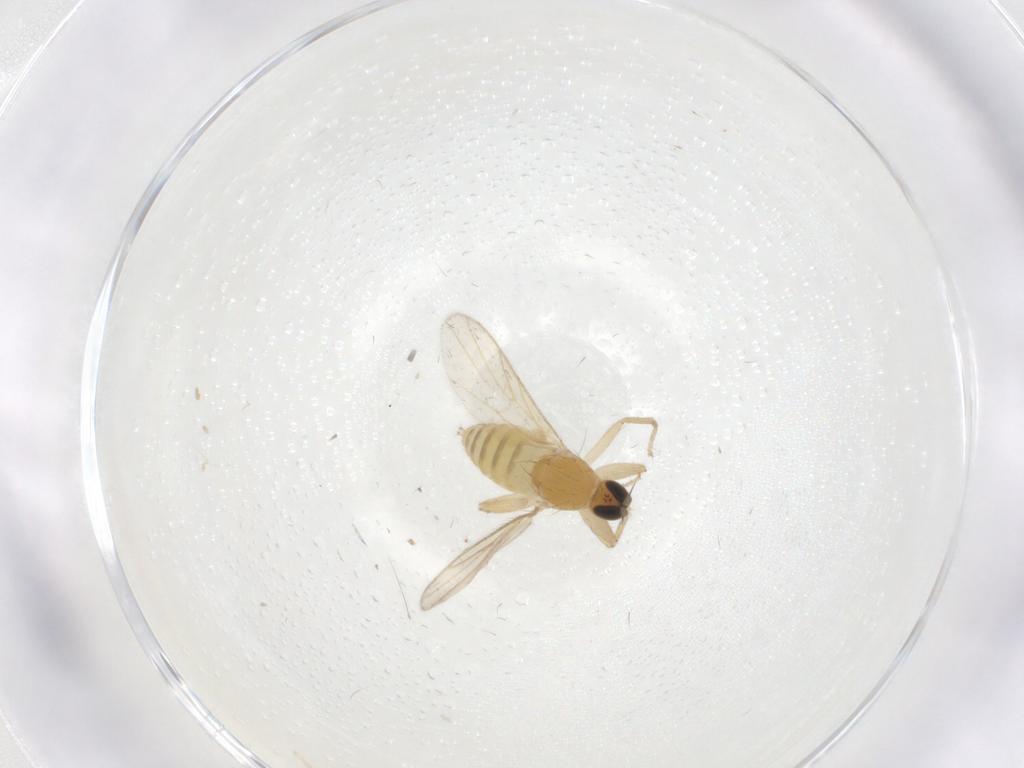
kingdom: Animalia
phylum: Arthropoda
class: Insecta
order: Diptera
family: Hybotidae
